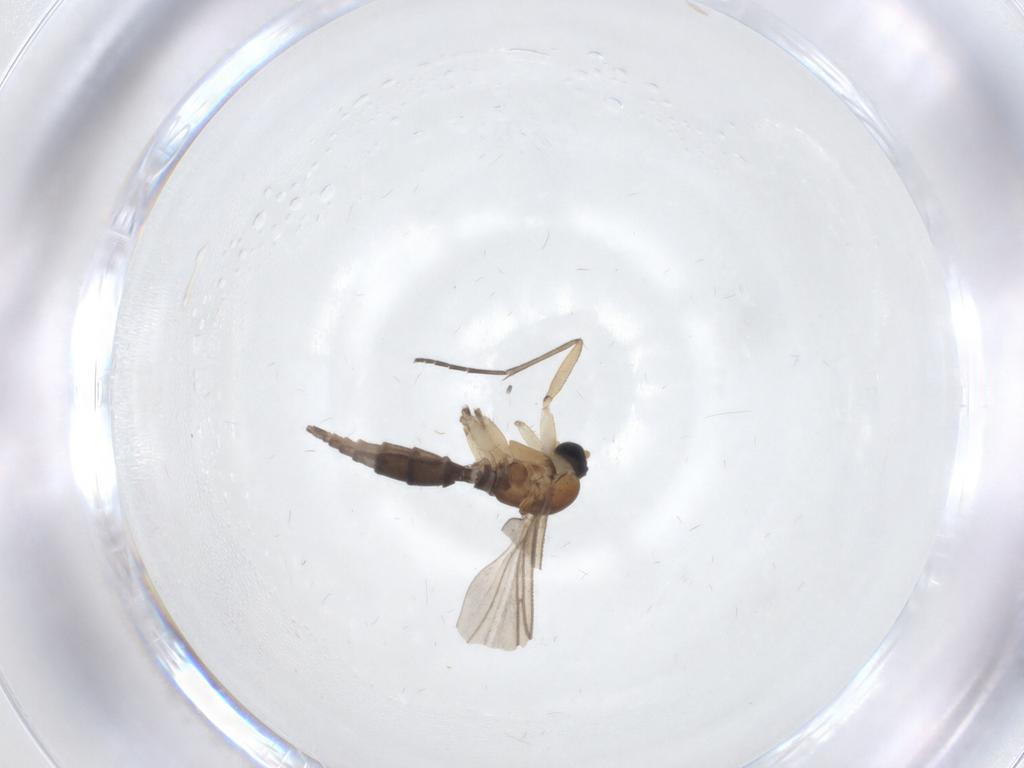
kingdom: Animalia
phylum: Arthropoda
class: Insecta
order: Diptera
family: Sciaridae
